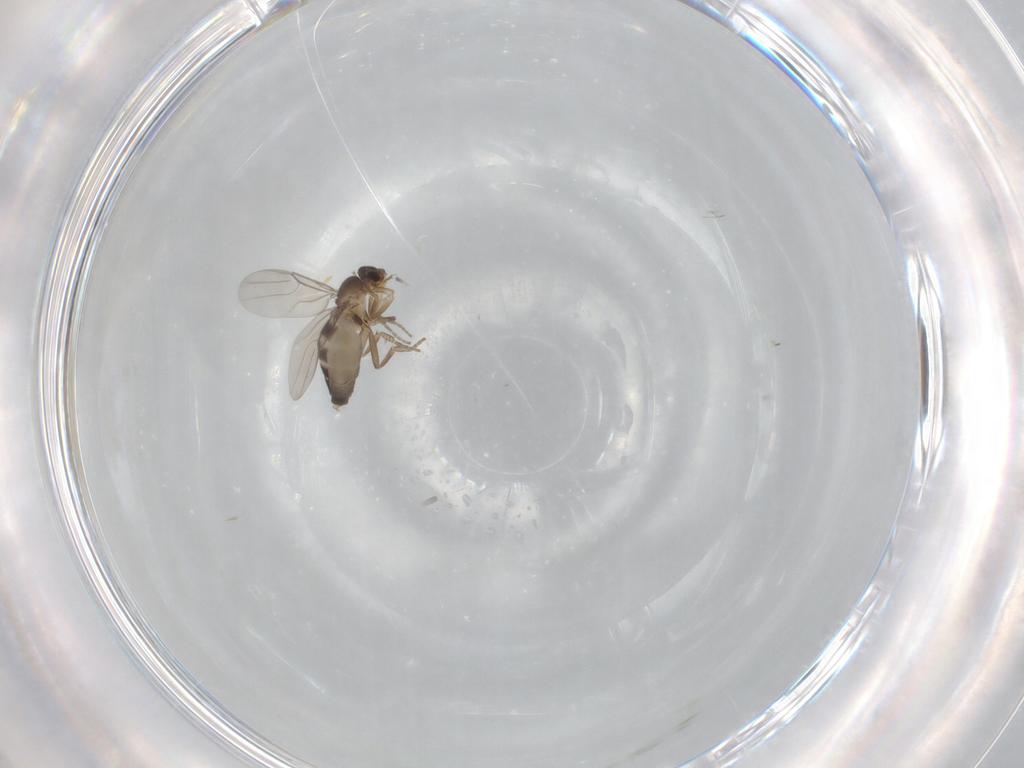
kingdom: Animalia
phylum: Arthropoda
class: Insecta
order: Diptera
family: Phoridae
